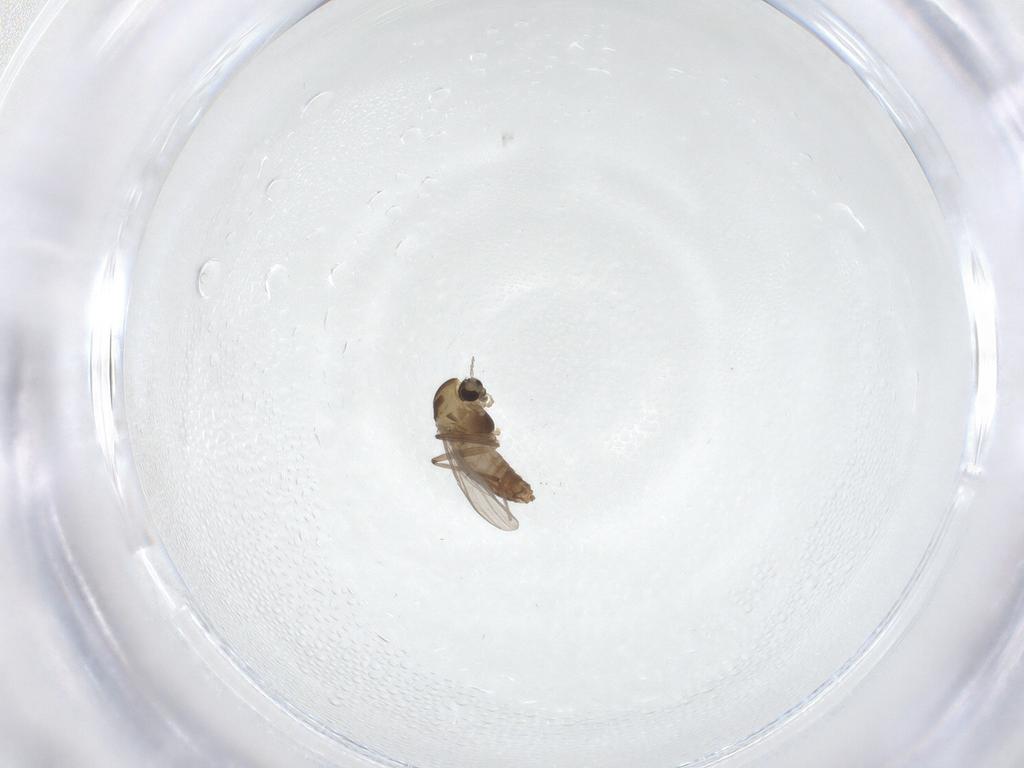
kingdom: Animalia
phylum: Arthropoda
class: Insecta
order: Diptera
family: Chironomidae
